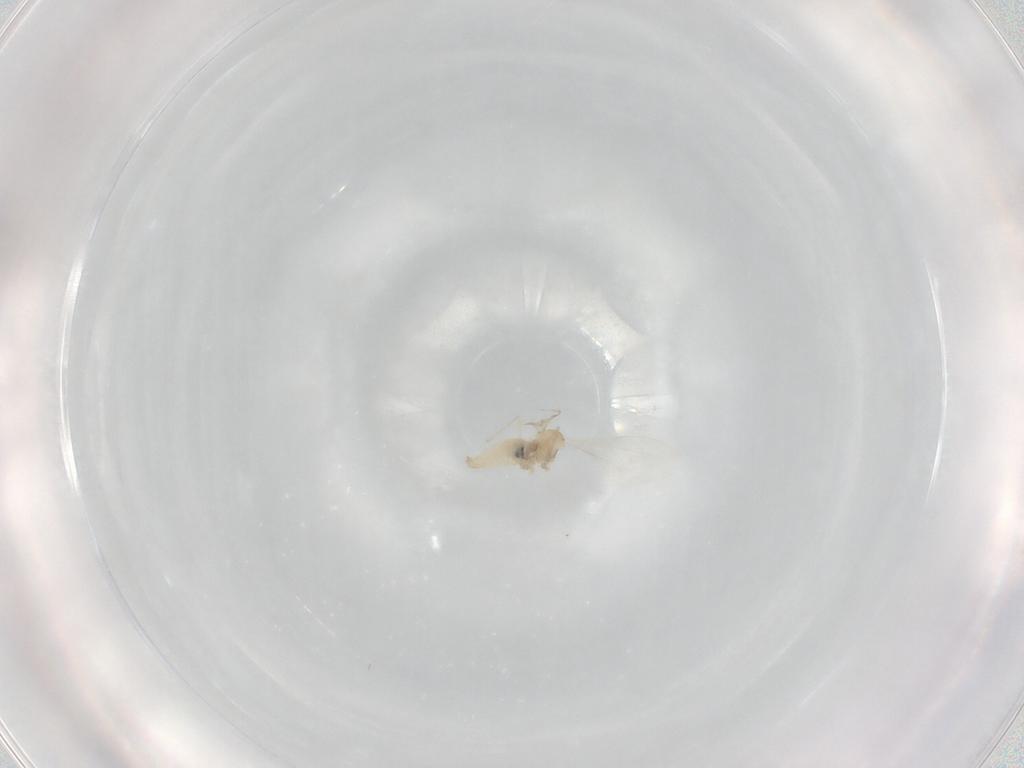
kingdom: Animalia
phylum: Arthropoda
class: Insecta
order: Diptera
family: Cecidomyiidae
